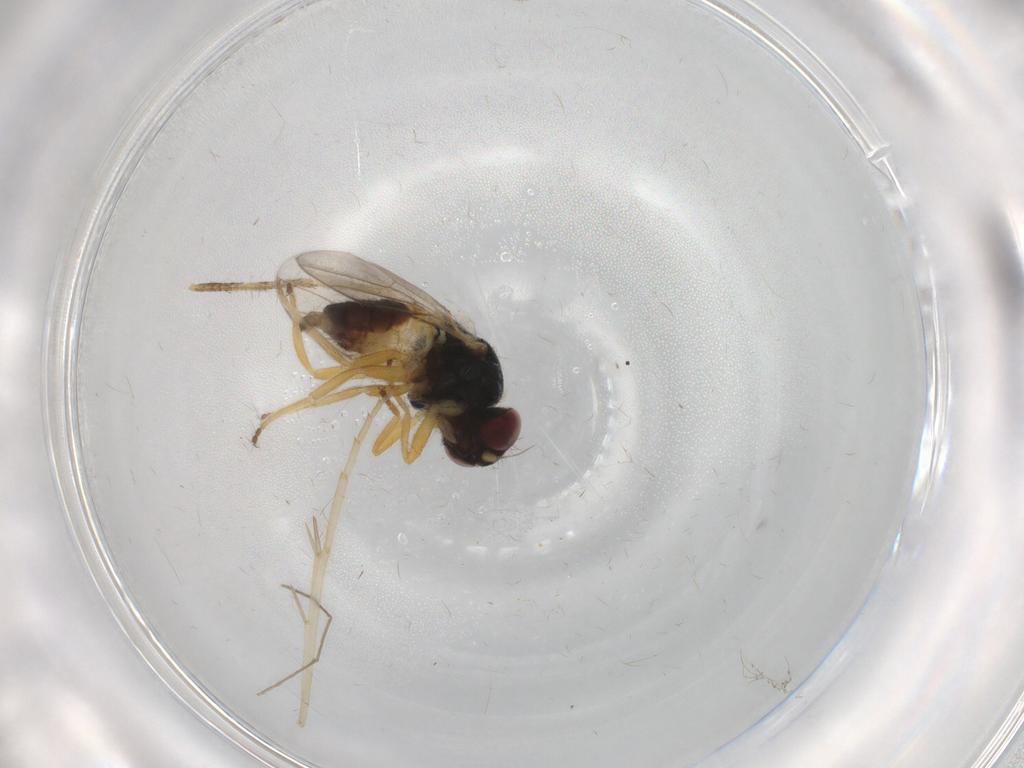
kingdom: Animalia
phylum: Arthropoda
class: Insecta
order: Diptera
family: Chloropidae
